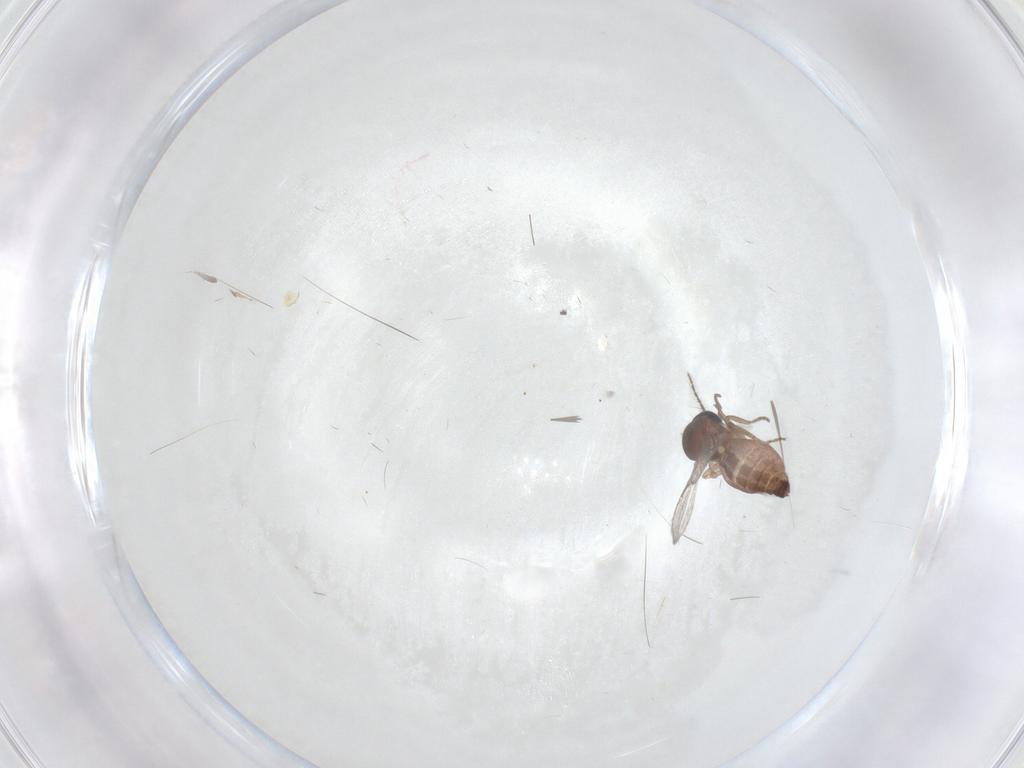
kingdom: Animalia
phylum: Arthropoda
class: Insecta
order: Diptera
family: Ceratopogonidae
